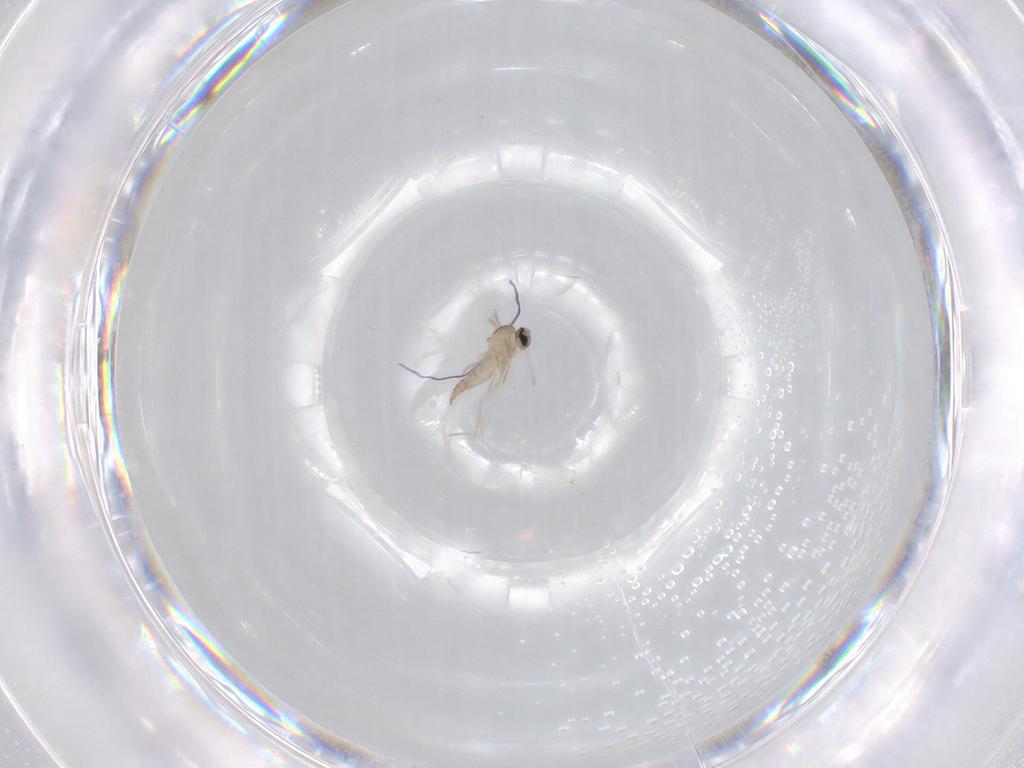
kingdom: Animalia
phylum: Arthropoda
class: Insecta
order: Diptera
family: Cecidomyiidae
